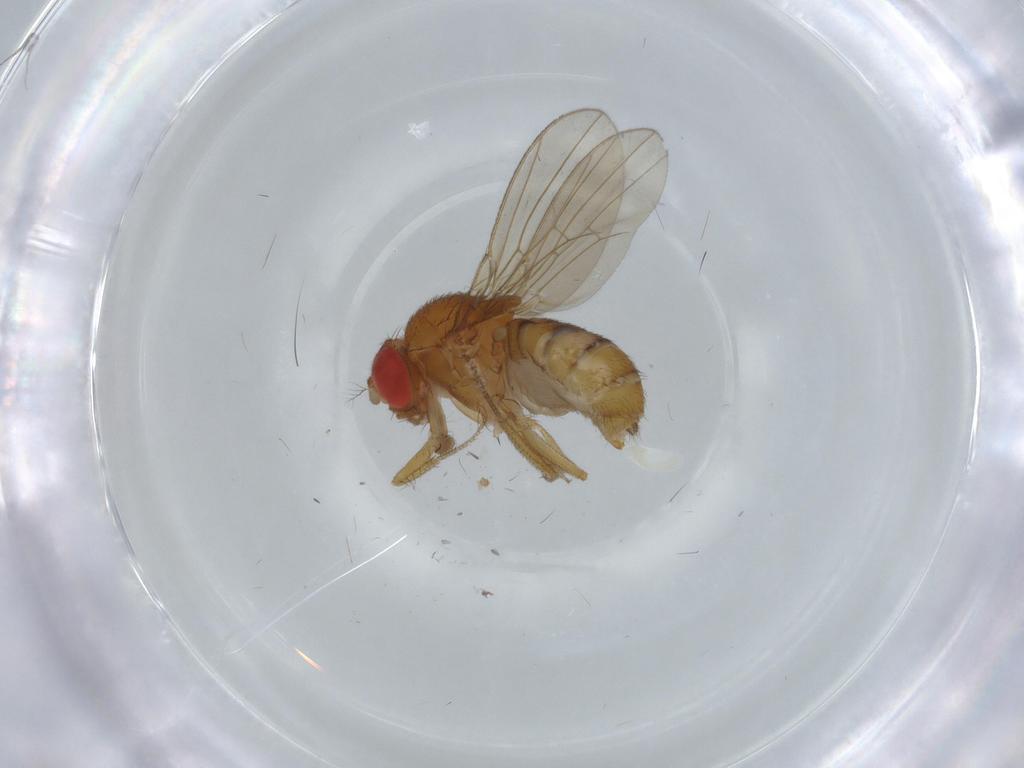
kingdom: Animalia
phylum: Arthropoda
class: Insecta
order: Diptera
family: Drosophilidae
